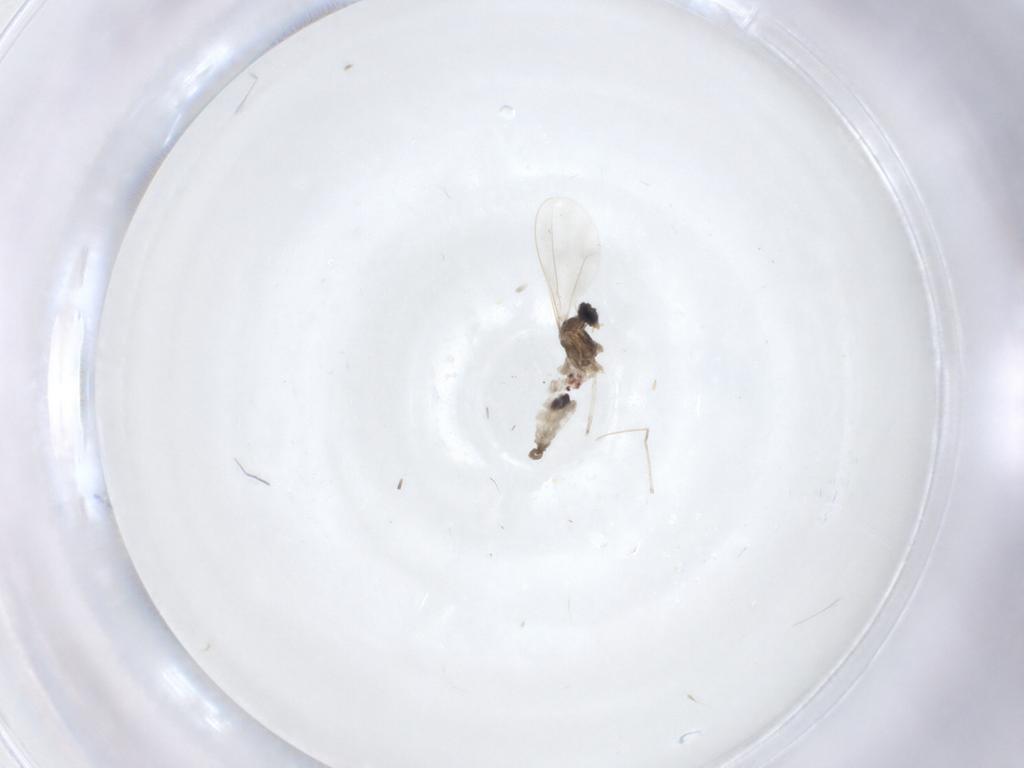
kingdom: Animalia
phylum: Arthropoda
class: Insecta
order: Diptera
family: Cecidomyiidae
